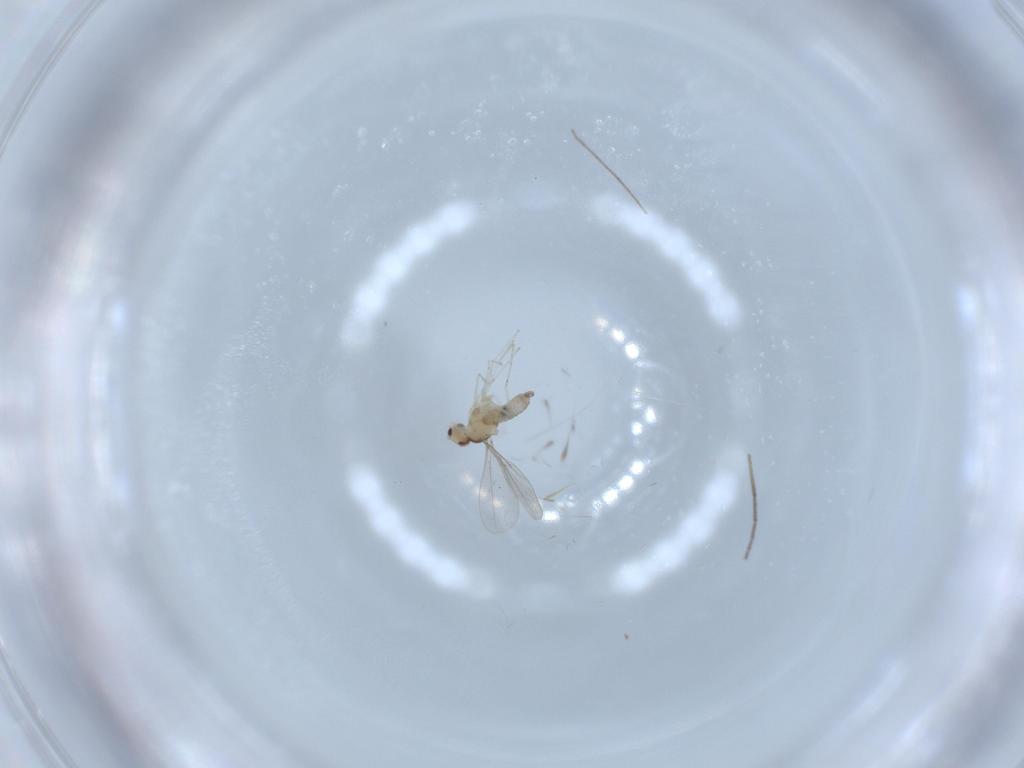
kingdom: Animalia
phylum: Arthropoda
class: Insecta
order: Diptera
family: Cecidomyiidae
